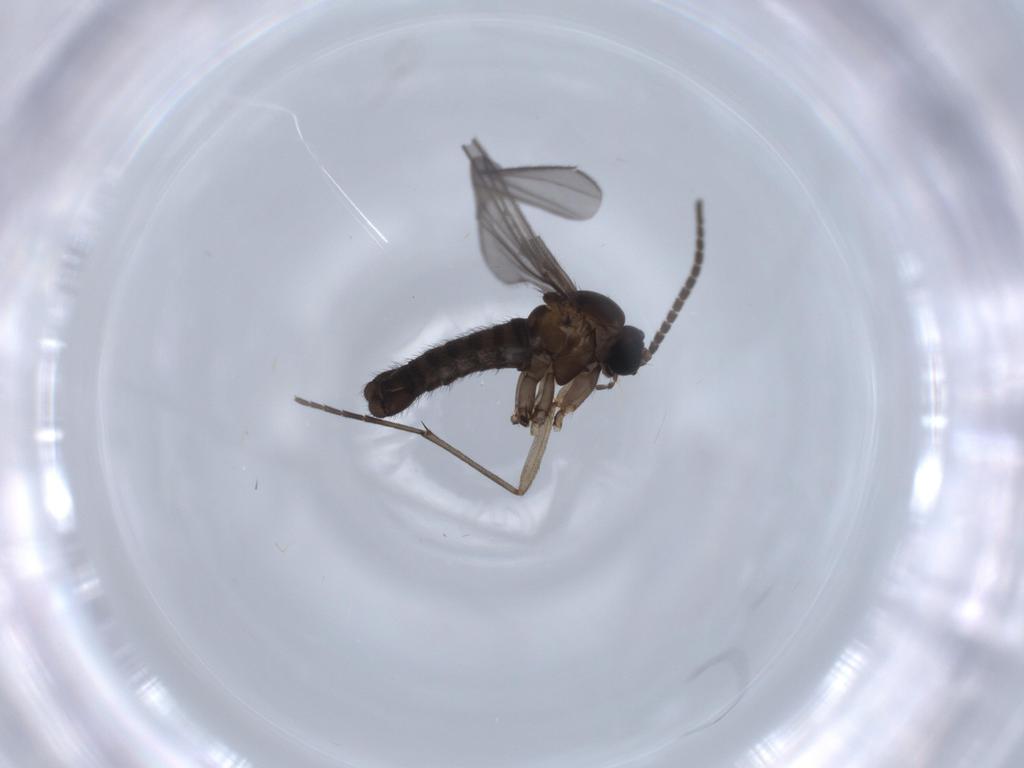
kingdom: Animalia
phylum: Arthropoda
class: Insecta
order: Diptera
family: Sciaridae
